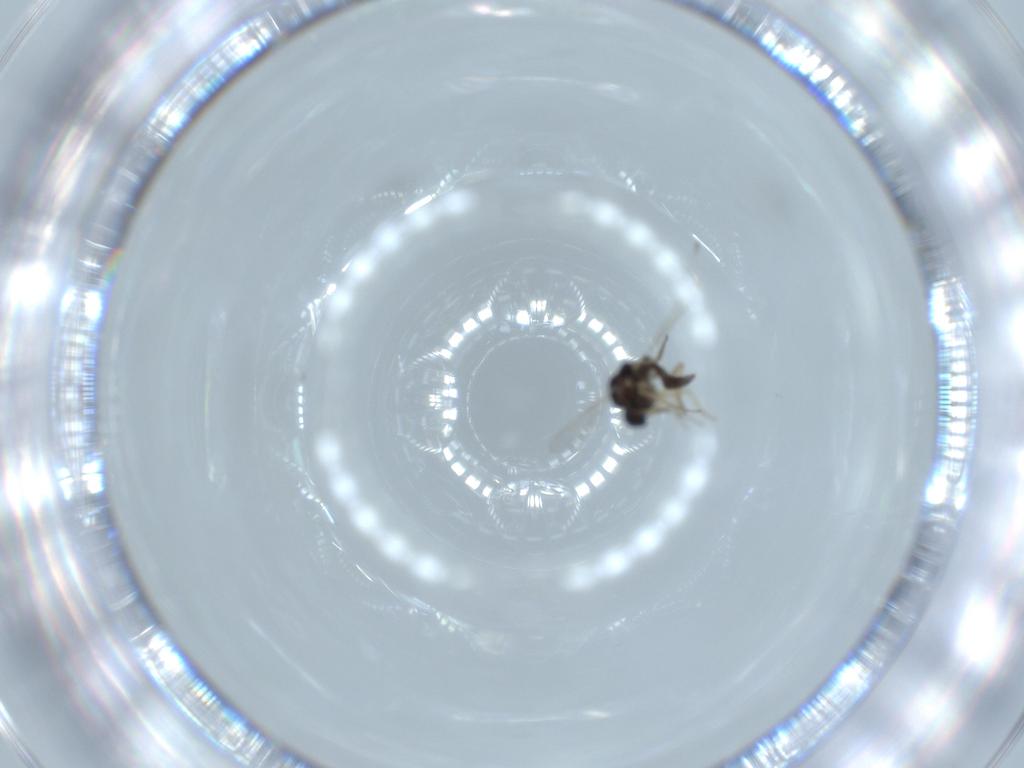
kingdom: Animalia
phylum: Arthropoda
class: Insecta
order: Diptera
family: Ceratopogonidae
